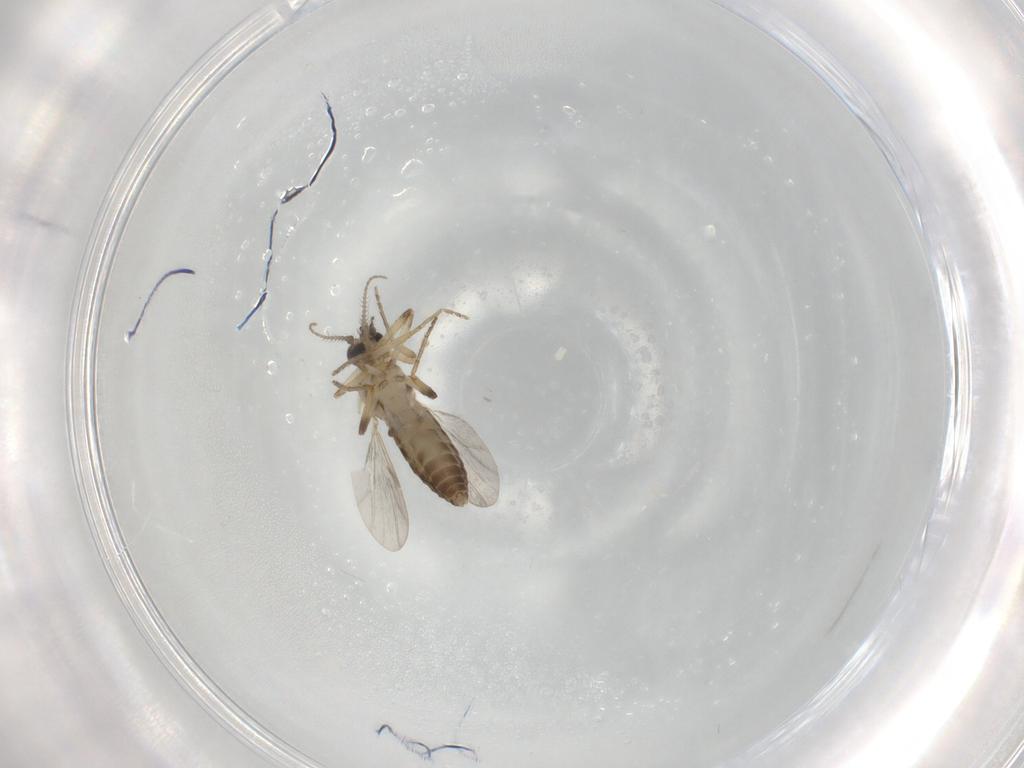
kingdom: Animalia
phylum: Arthropoda
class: Insecta
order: Diptera
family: Ceratopogonidae
